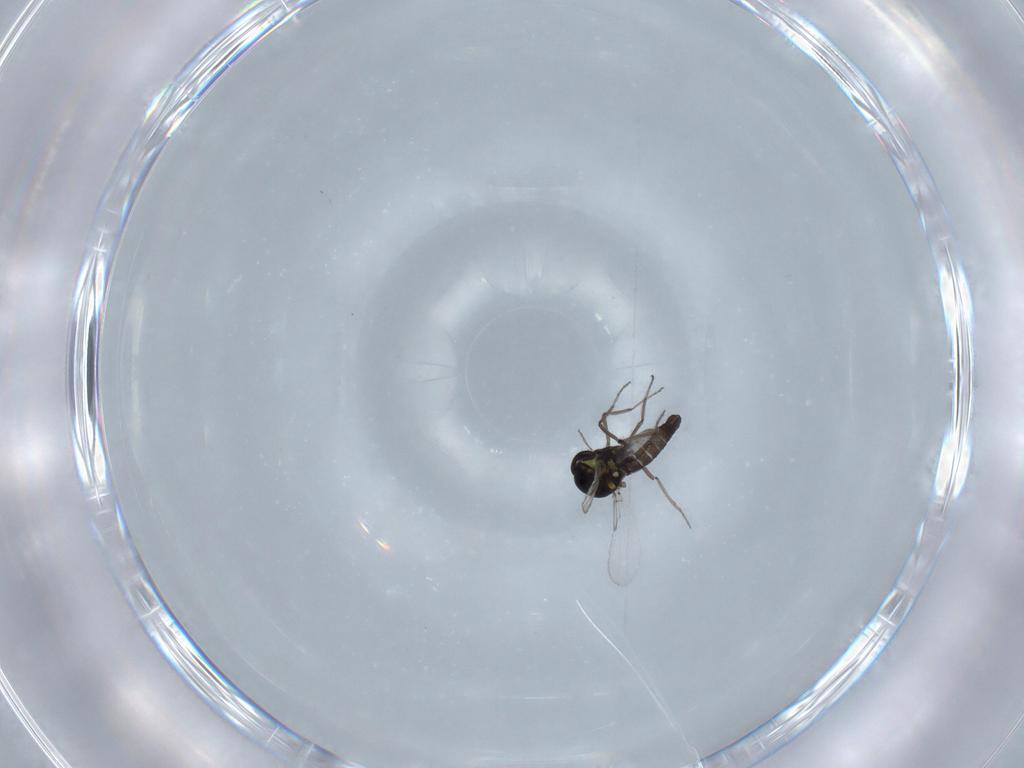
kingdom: Animalia
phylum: Arthropoda
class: Insecta
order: Diptera
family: Ceratopogonidae
